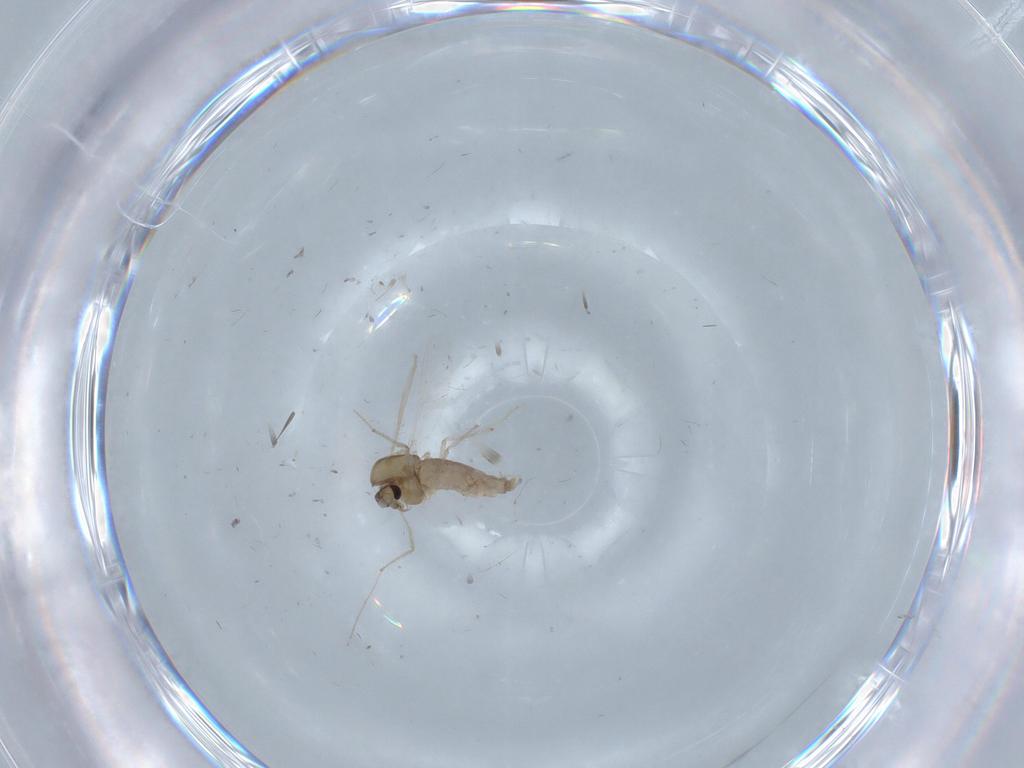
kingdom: Animalia
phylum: Arthropoda
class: Insecta
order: Diptera
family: Chironomidae
